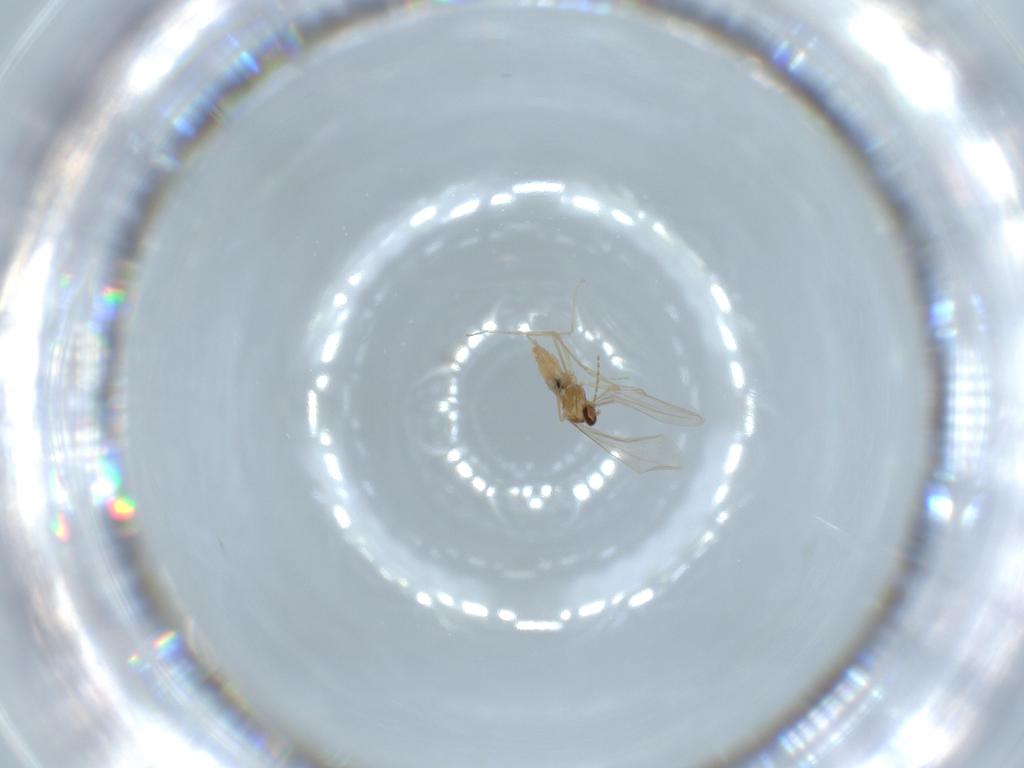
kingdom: Animalia
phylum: Arthropoda
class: Insecta
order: Diptera
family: Cecidomyiidae
